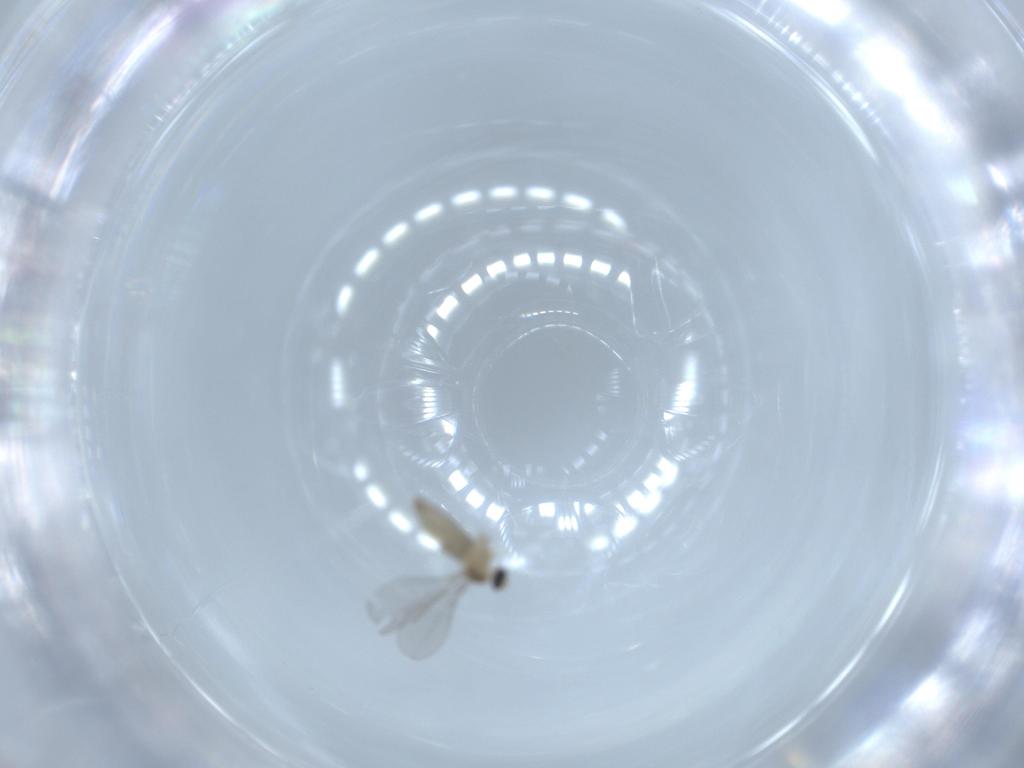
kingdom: Animalia
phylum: Arthropoda
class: Insecta
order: Diptera
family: Cecidomyiidae
